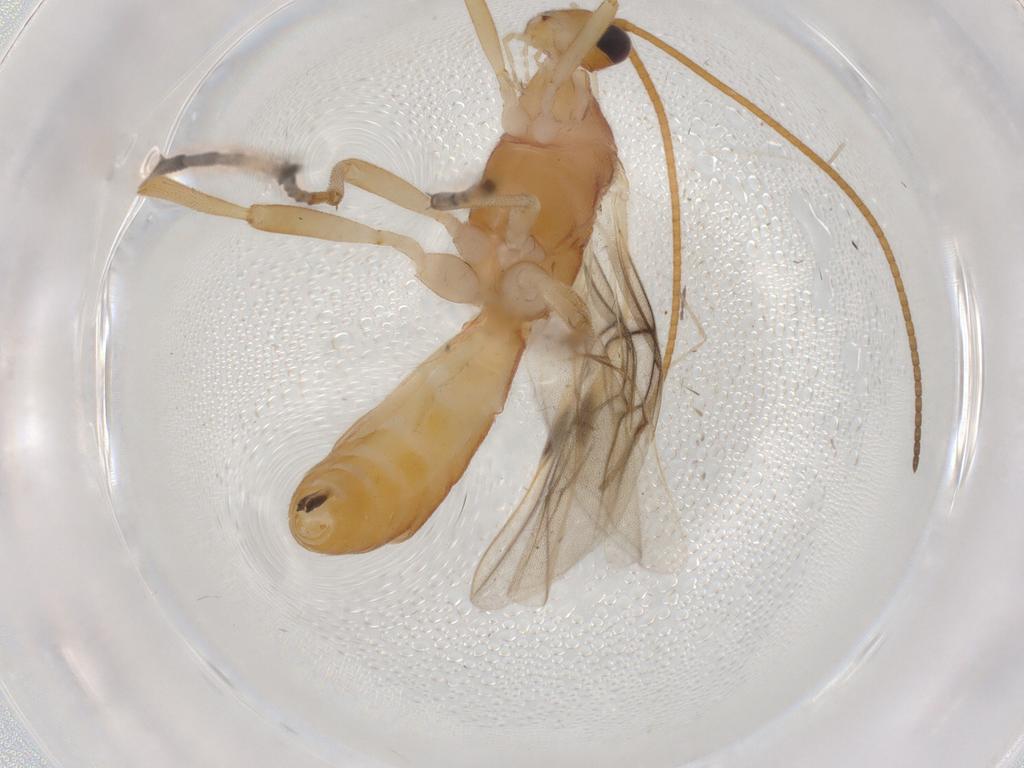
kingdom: Animalia
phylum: Arthropoda
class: Insecta
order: Hymenoptera
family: Braconidae
